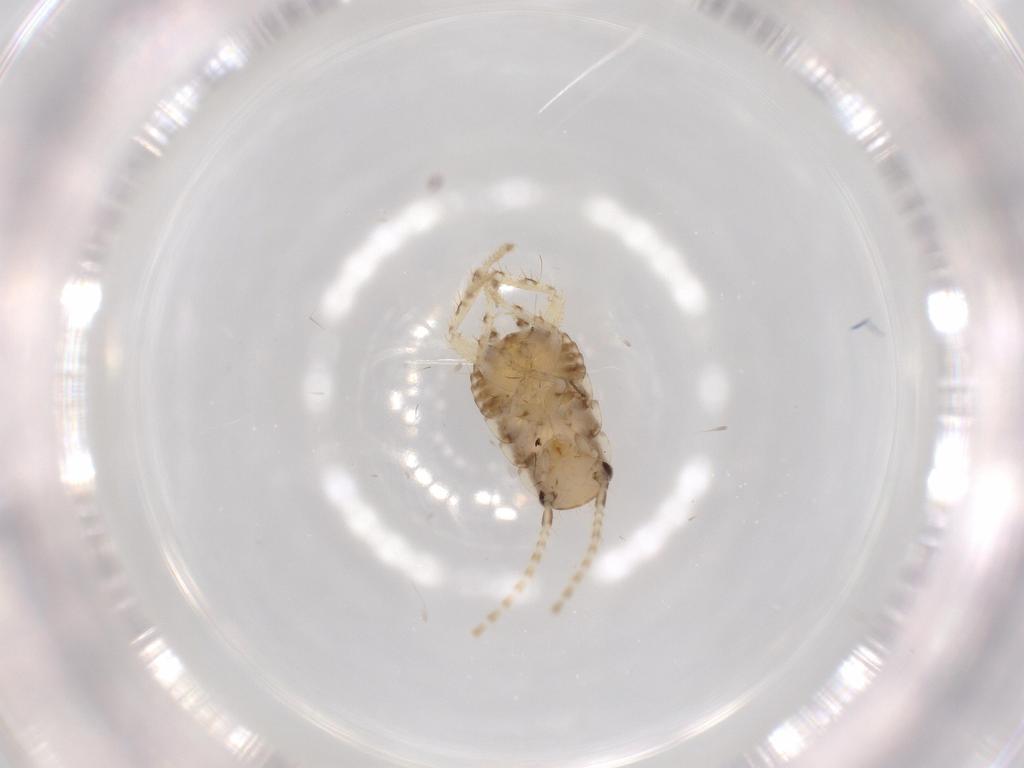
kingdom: Animalia
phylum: Arthropoda
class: Insecta
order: Blattodea
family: Ectobiidae
